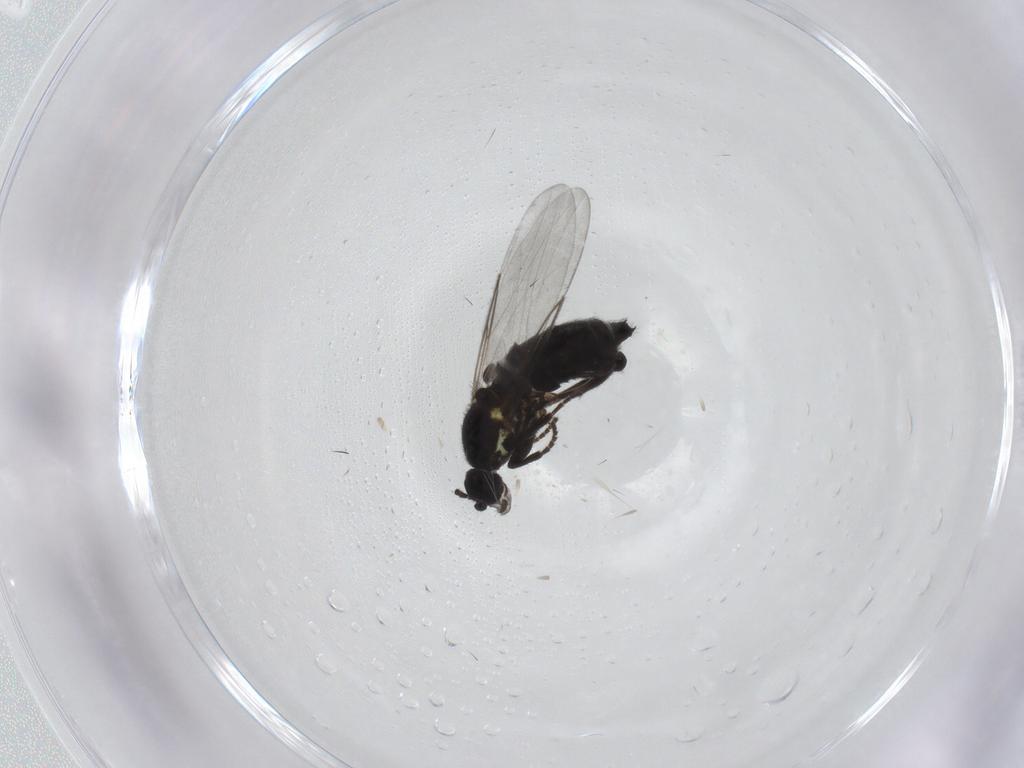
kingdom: Animalia
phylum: Arthropoda
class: Insecta
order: Diptera
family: Scatopsidae
